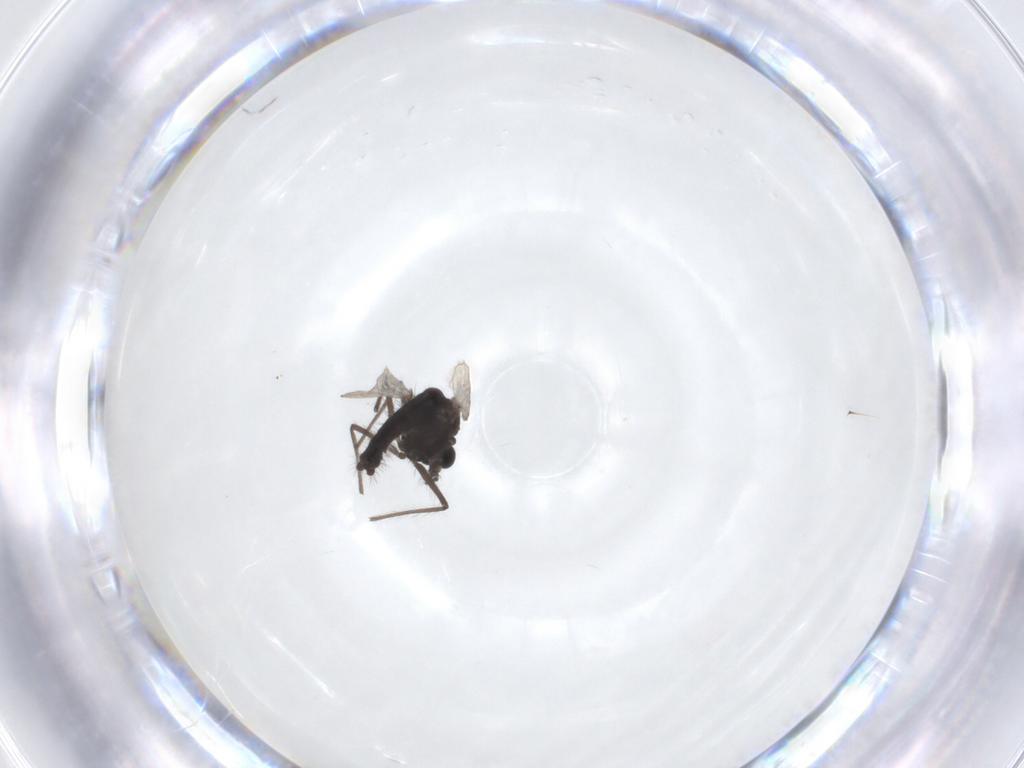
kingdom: Animalia
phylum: Arthropoda
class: Insecta
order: Diptera
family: Chironomidae
